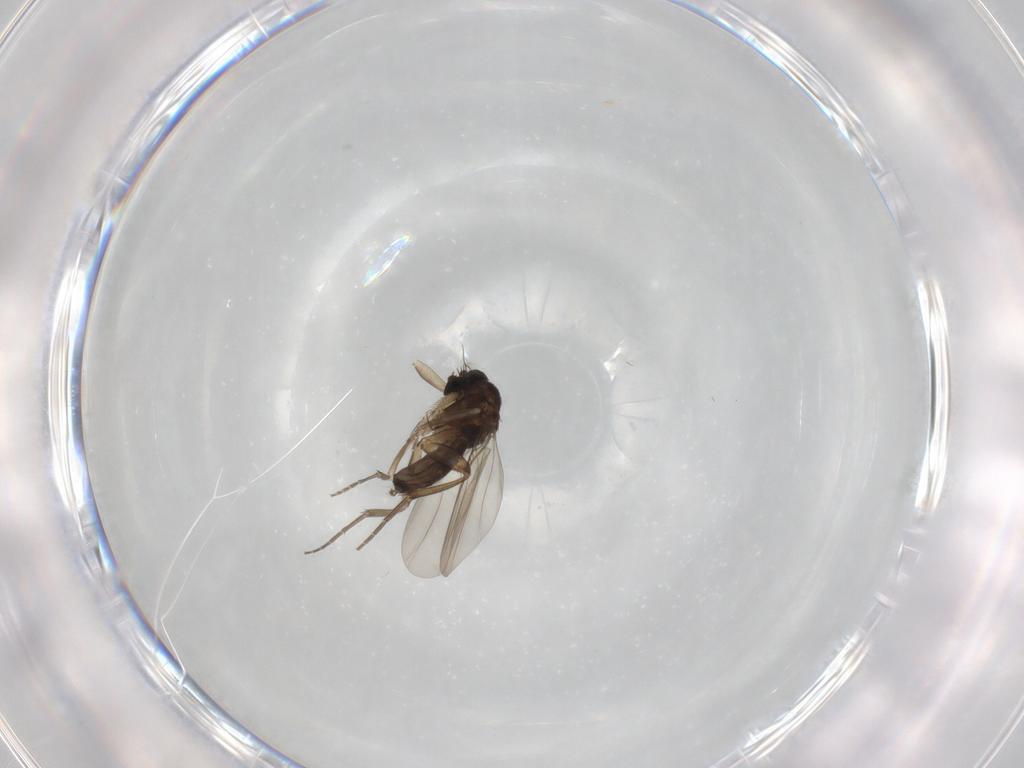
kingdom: Animalia
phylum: Arthropoda
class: Insecta
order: Diptera
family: Phoridae
